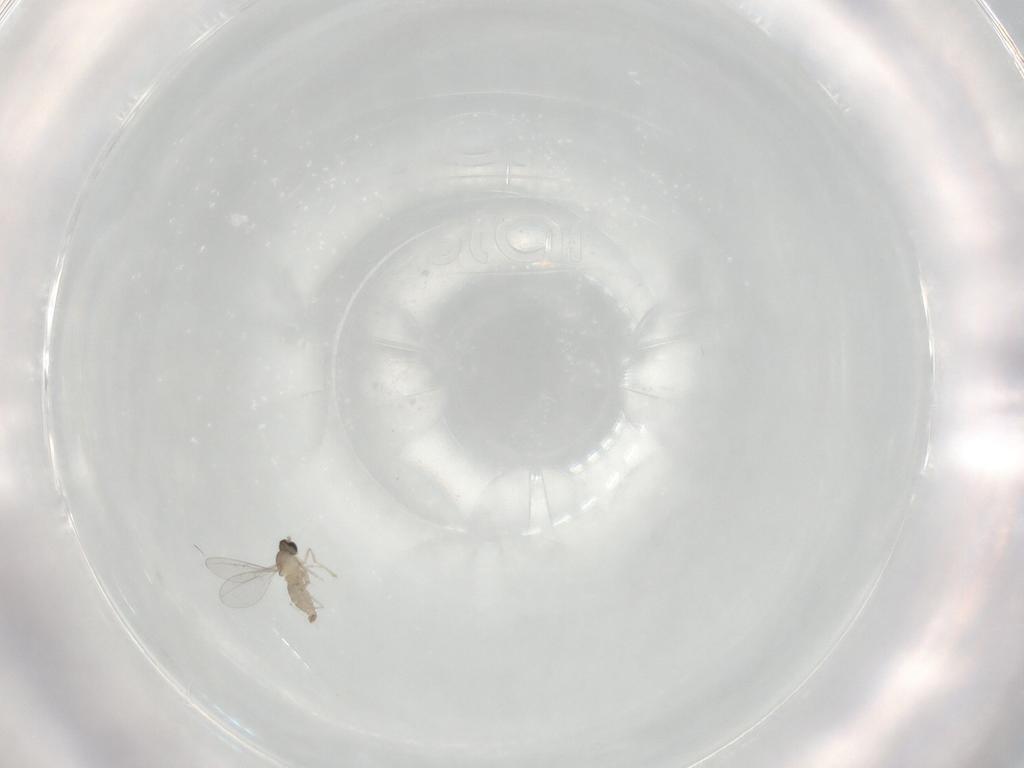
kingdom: Animalia
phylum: Arthropoda
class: Insecta
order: Diptera
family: Cecidomyiidae
